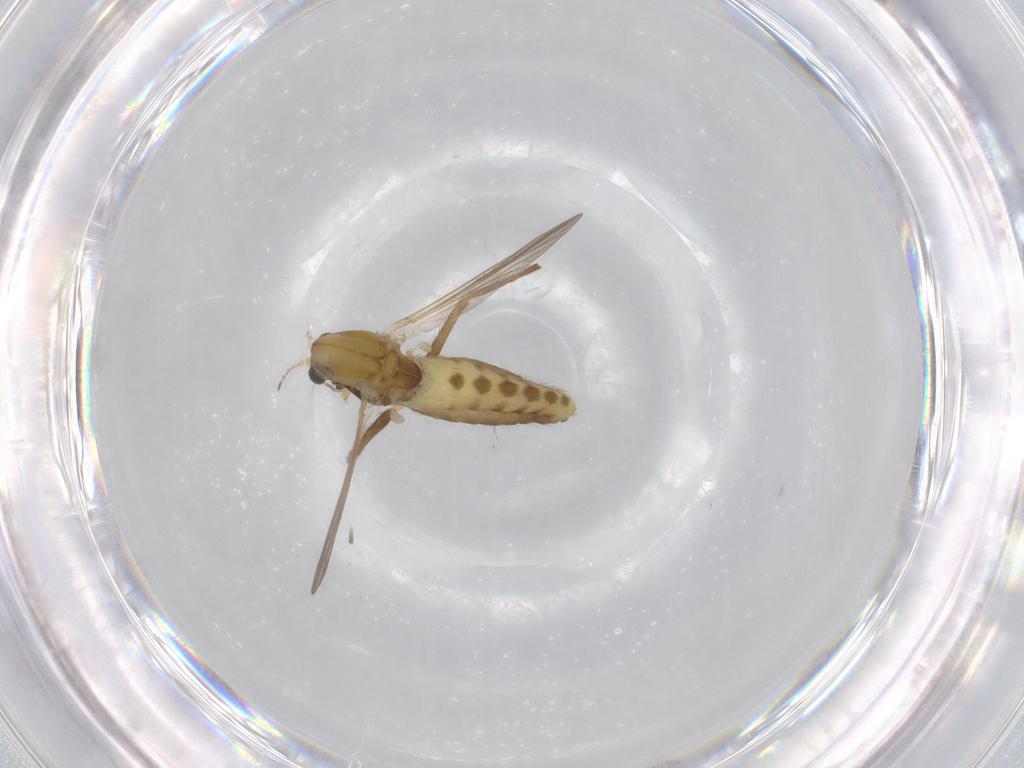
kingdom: Animalia
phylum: Arthropoda
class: Insecta
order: Diptera
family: Chironomidae
